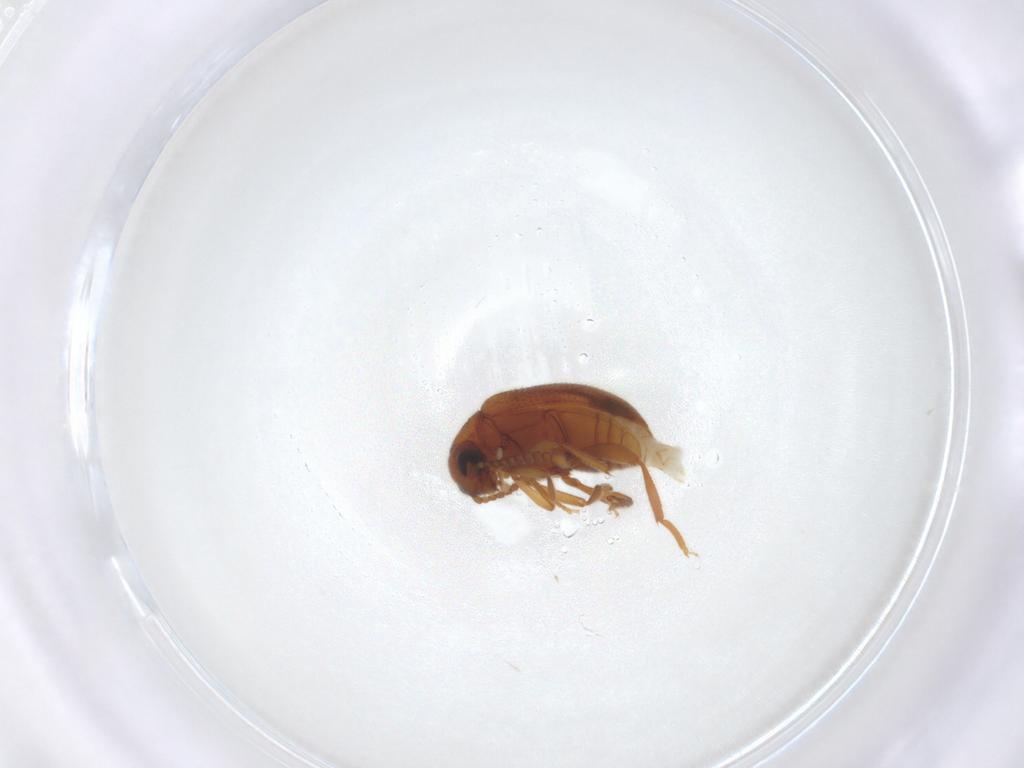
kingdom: Animalia
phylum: Arthropoda
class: Insecta
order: Coleoptera
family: Aderidae
